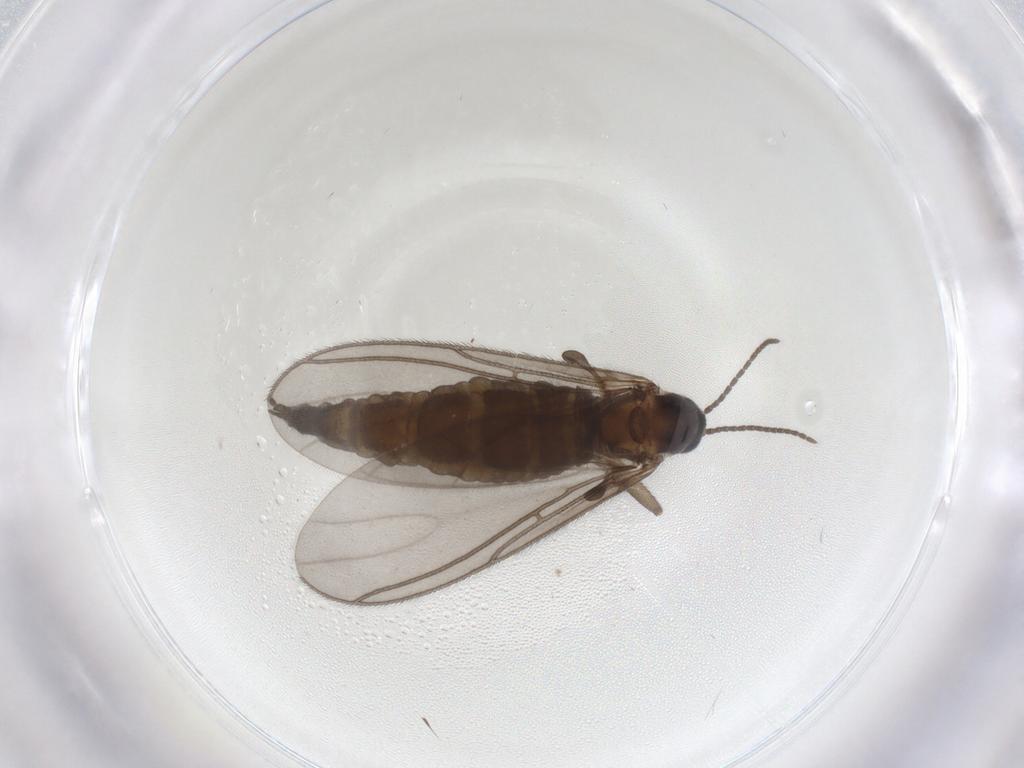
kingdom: Animalia
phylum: Arthropoda
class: Insecta
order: Diptera
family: Sciaridae
